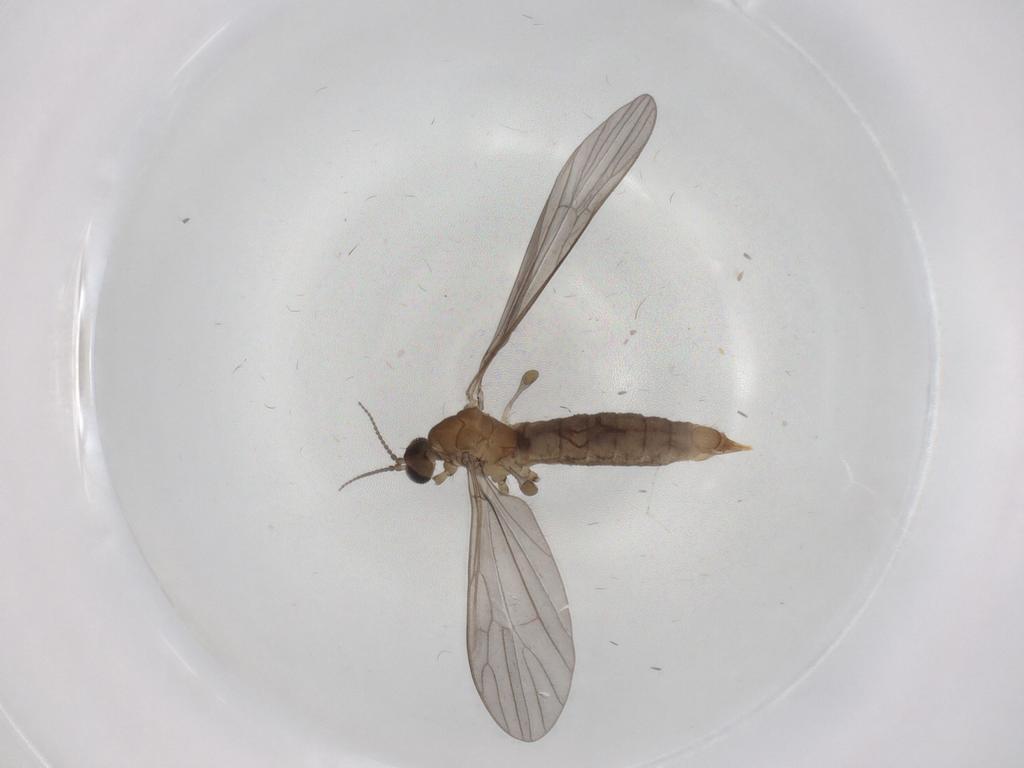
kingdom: Animalia
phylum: Arthropoda
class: Insecta
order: Diptera
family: Limoniidae
